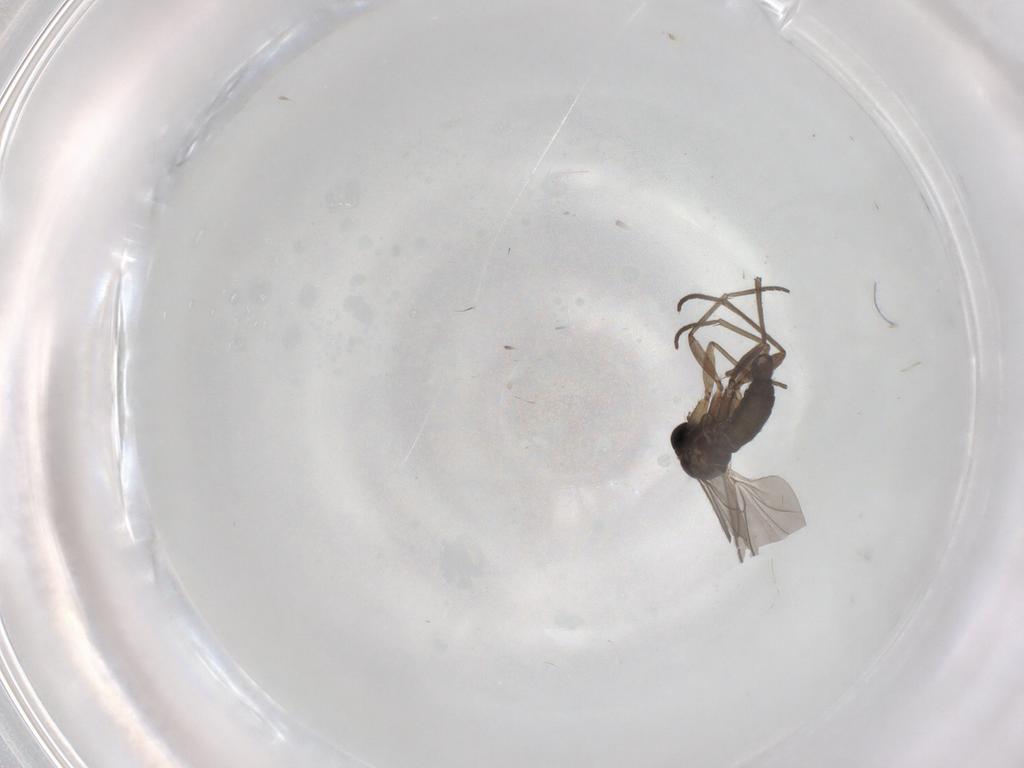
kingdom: Animalia
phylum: Arthropoda
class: Insecta
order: Diptera
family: Sciaridae
